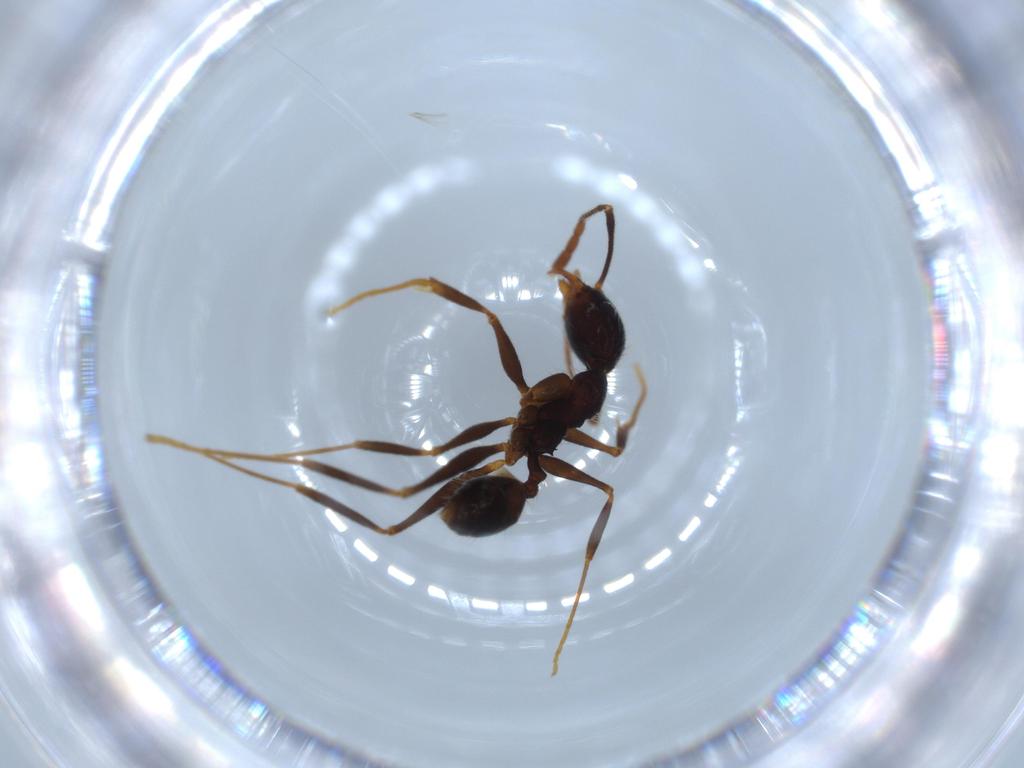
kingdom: Animalia
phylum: Arthropoda
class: Insecta
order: Hymenoptera
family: Formicidae
